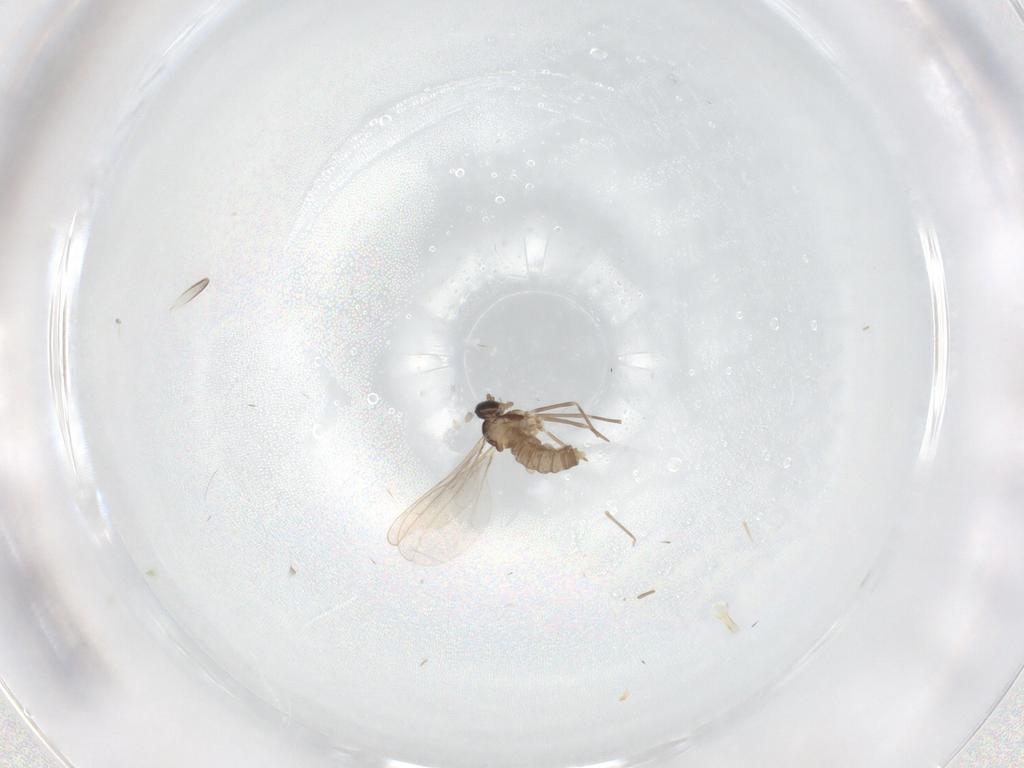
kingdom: Animalia
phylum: Arthropoda
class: Insecta
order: Diptera
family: Cecidomyiidae
